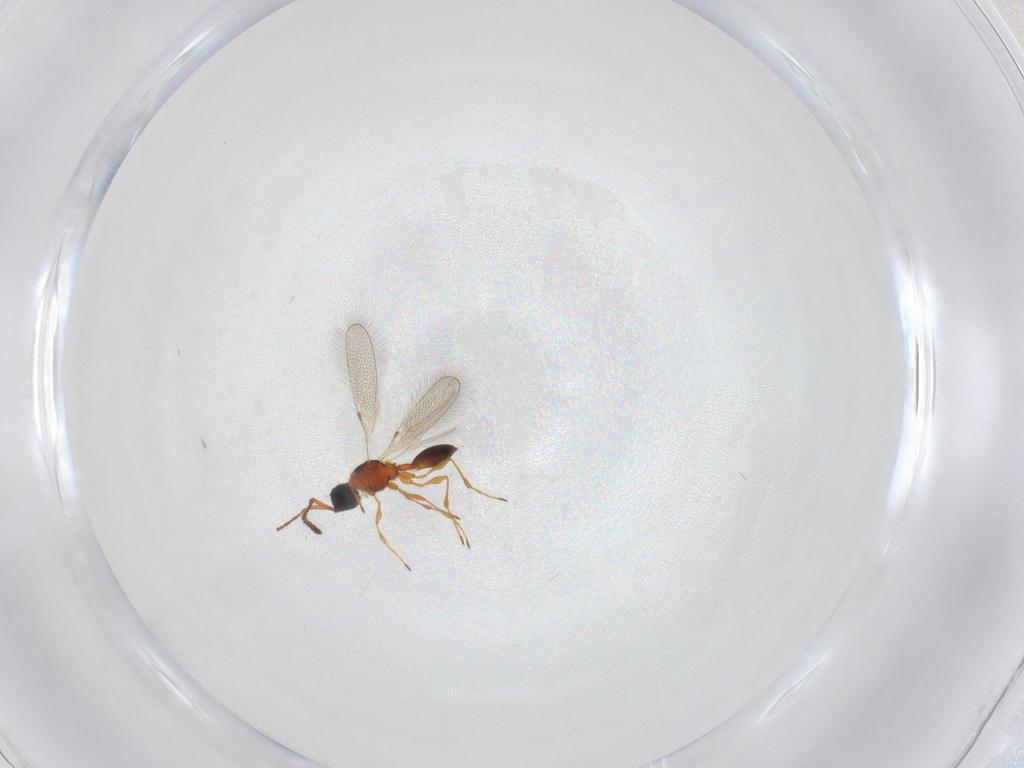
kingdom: Animalia
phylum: Arthropoda
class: Insecta
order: Hymenoptera
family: Diapriidae
